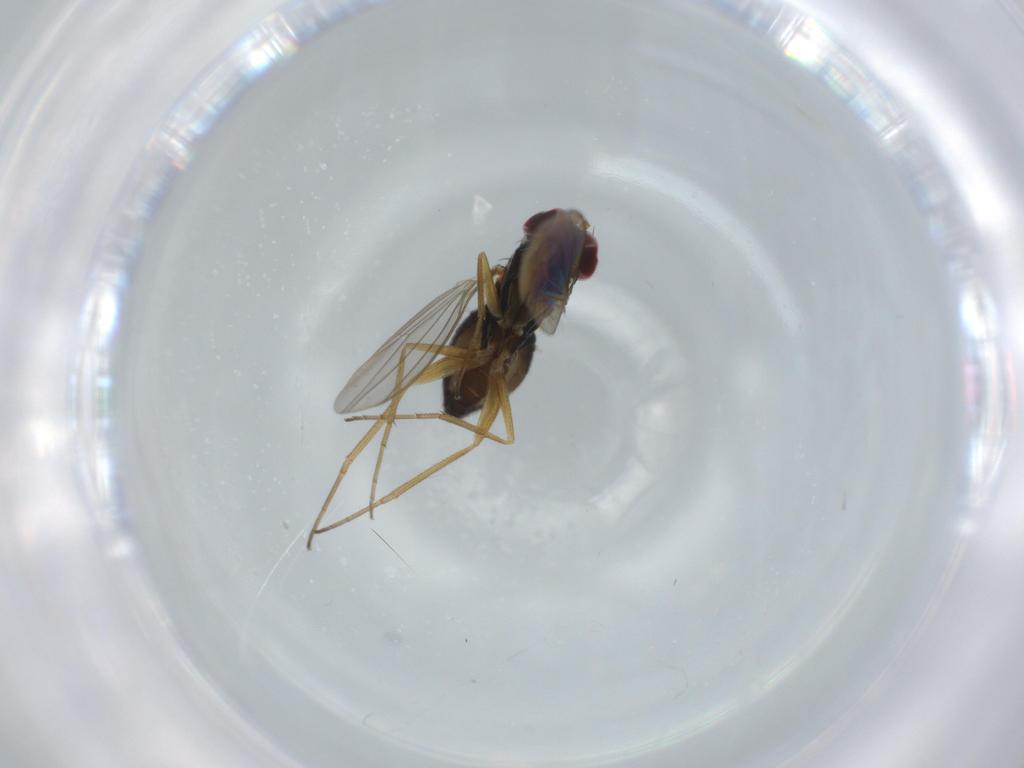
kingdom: Animalia
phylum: Arthropoda
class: Insecta
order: Diptera
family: Dolichopodidae
